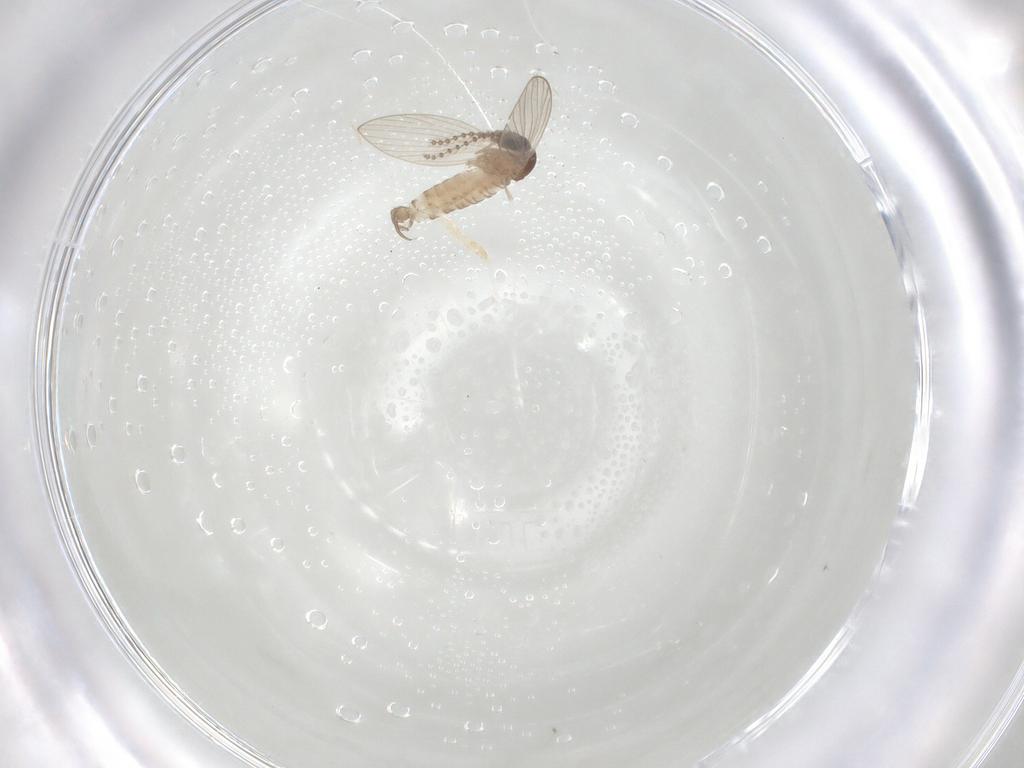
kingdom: Animalia
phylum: Arthropoda
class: Insecta
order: Diptera
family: Psychodidae
